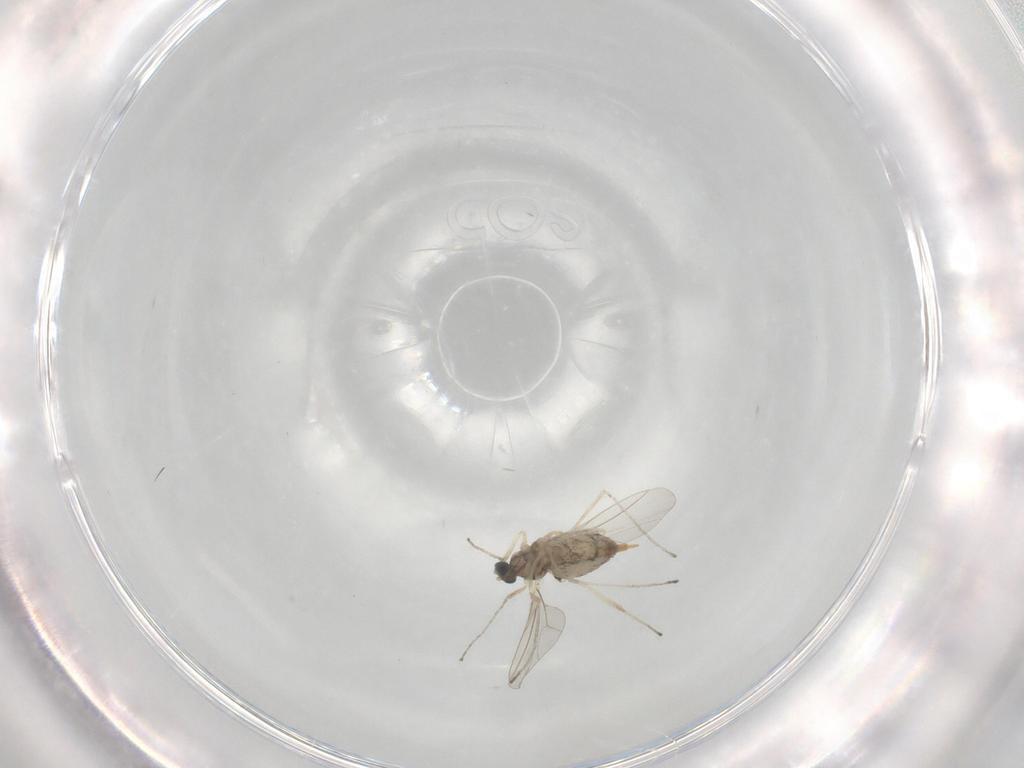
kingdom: Animalia
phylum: Arthropoda
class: Insecta
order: Diptera
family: Cecidomyiidae
